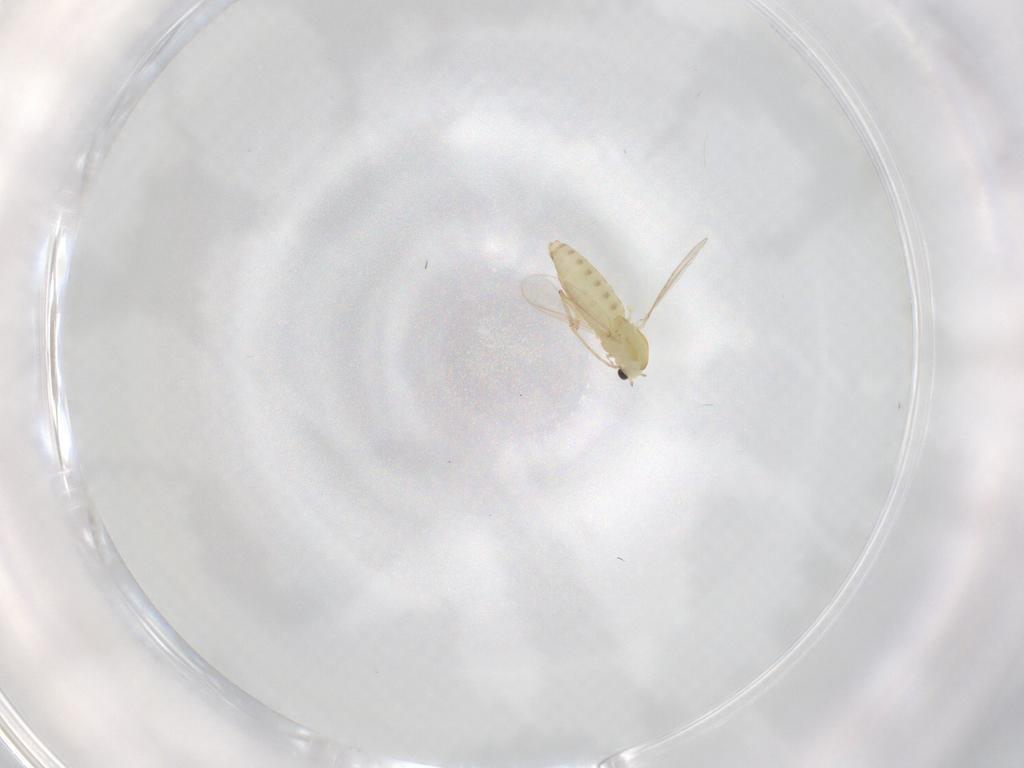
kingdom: Animalia
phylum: Arthropoda
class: Insecta
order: Diptera
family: Chironomidae
